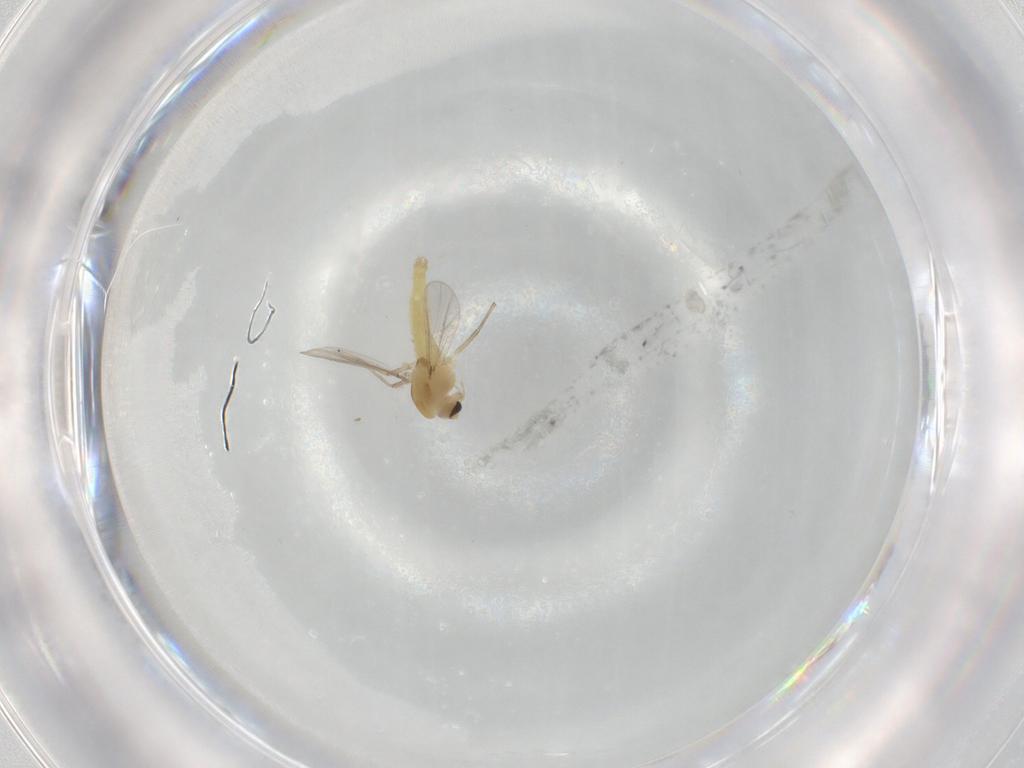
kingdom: Animalia
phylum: Arthropoda
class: Insecta
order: Diptera
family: Chironomidae
